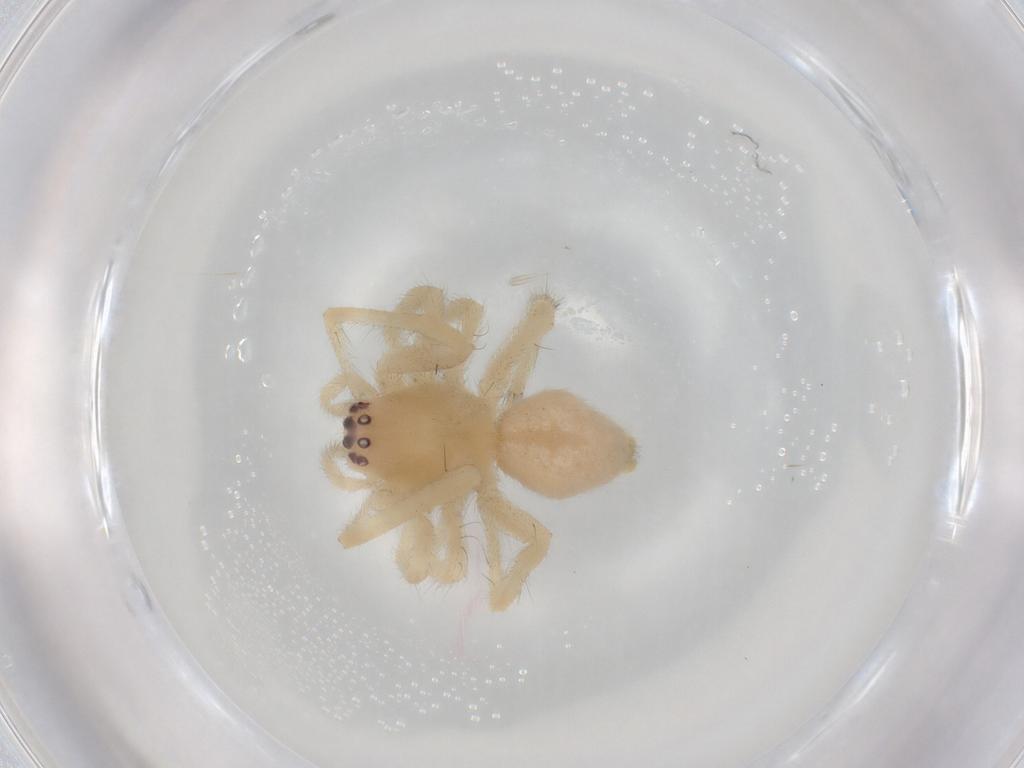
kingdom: Animalia
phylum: Arthropoda
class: Arachnida
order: Araneae
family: Cheiracanthiidae
